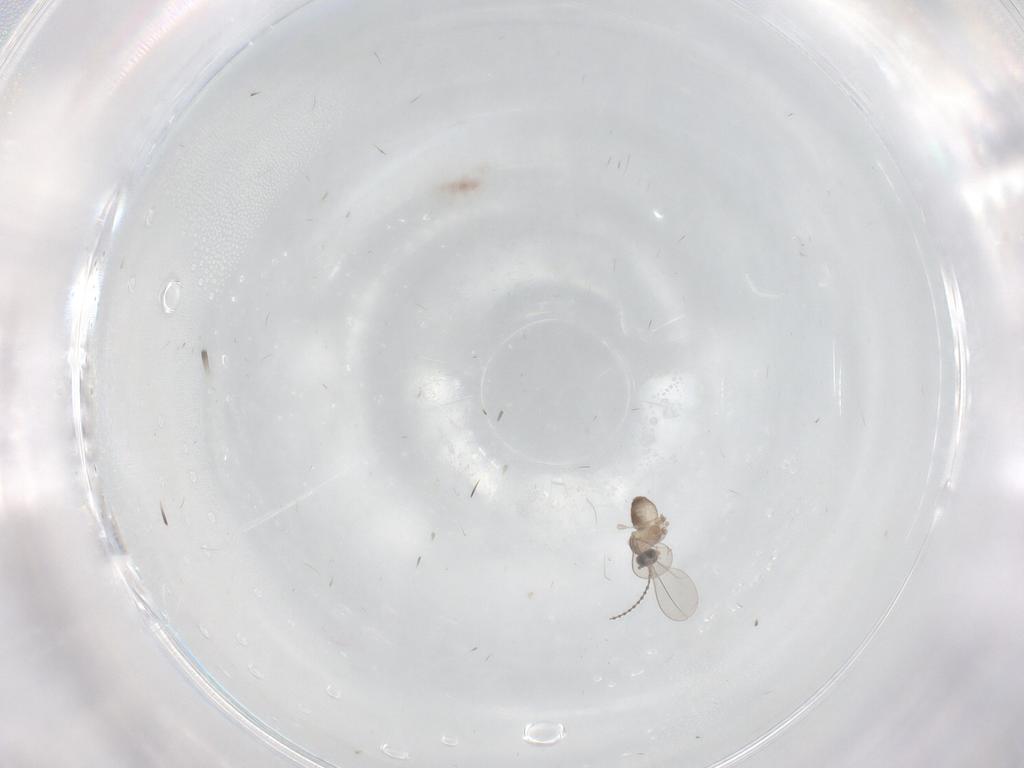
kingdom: Animalia
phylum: Arthropoda
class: Insecta
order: Diptera
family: Cecidomyiidae
